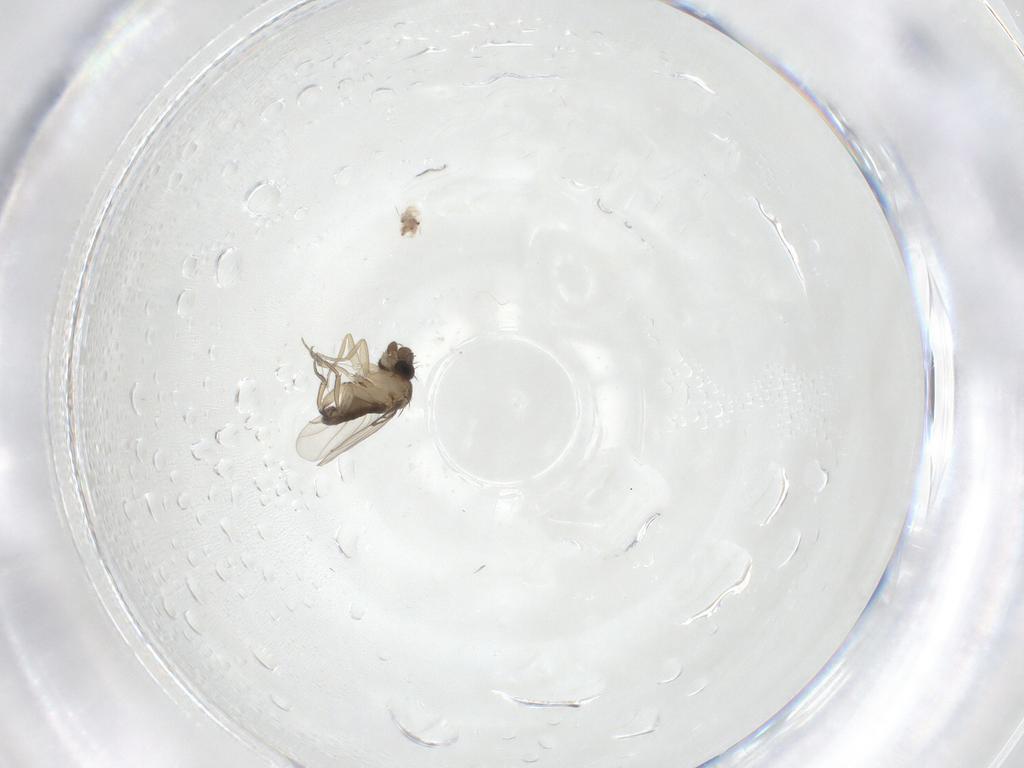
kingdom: Animalia
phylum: Arthropoda
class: Insecta
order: Diptera
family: Phoridae
